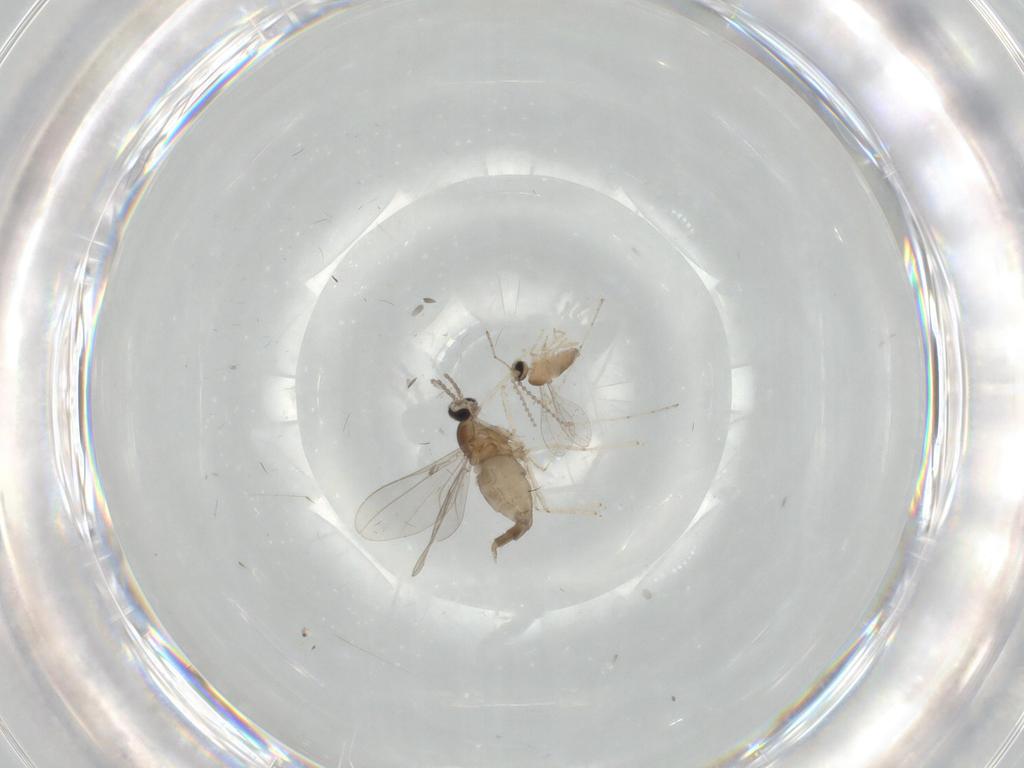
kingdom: Animalia
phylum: Arthropoda
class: Insecta
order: Diptera
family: Cecidomyiidae
